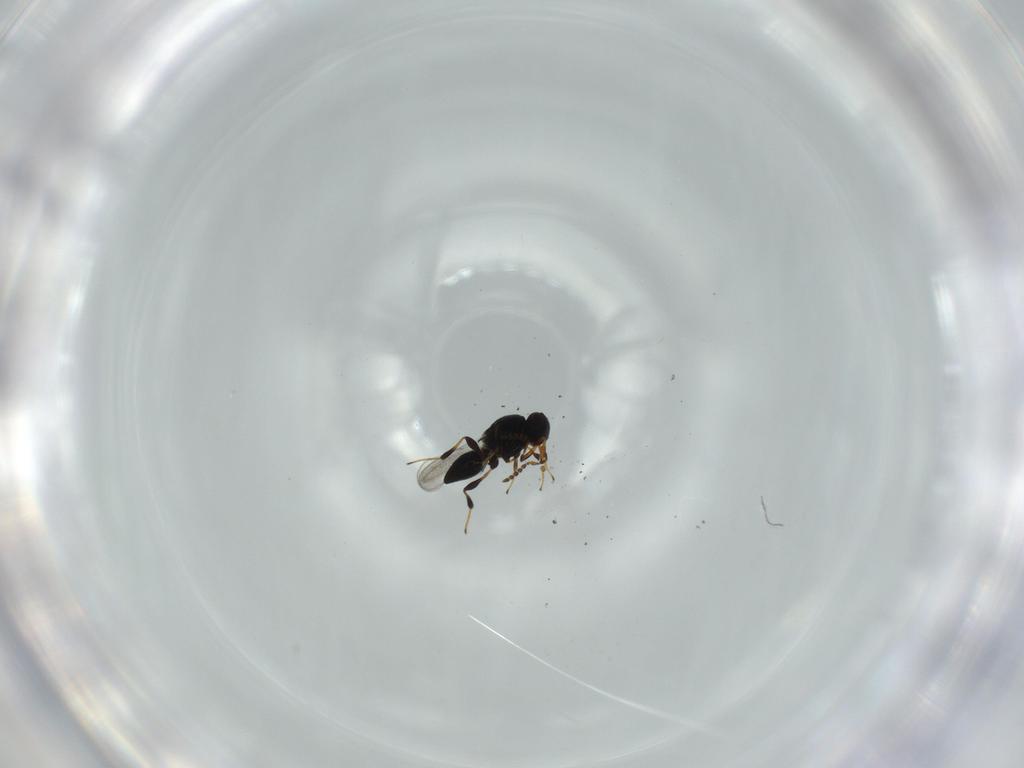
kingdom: Animalia
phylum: Arthropoda
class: Insecta
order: Hymenoptera
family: Platygastridae
